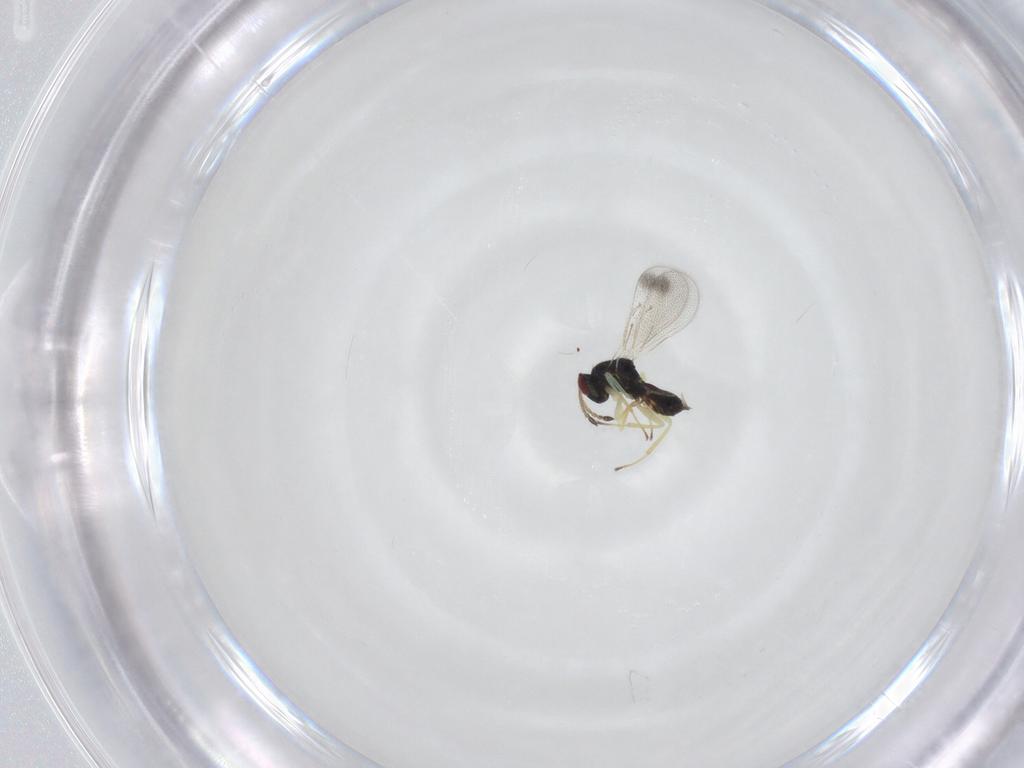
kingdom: Animalia
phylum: Arthropoda
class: Insecta
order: Hymenoptera
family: Eulophidae
